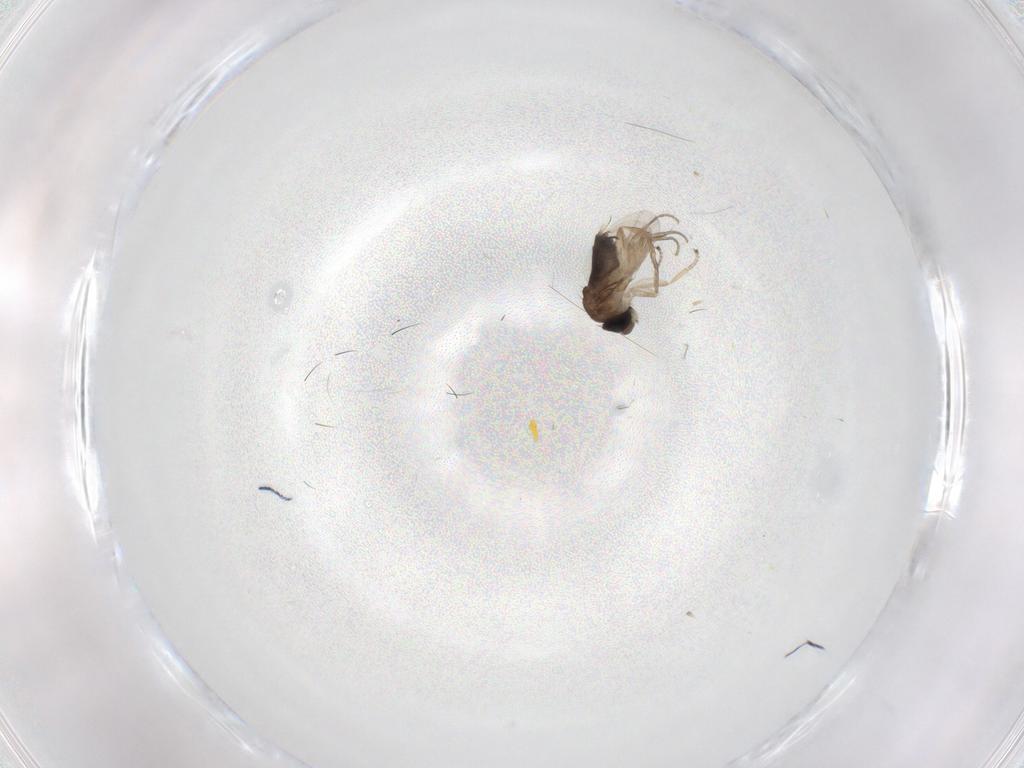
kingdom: Animalia
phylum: Arthropoda
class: Insecta
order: Diptera
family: Phoridae
